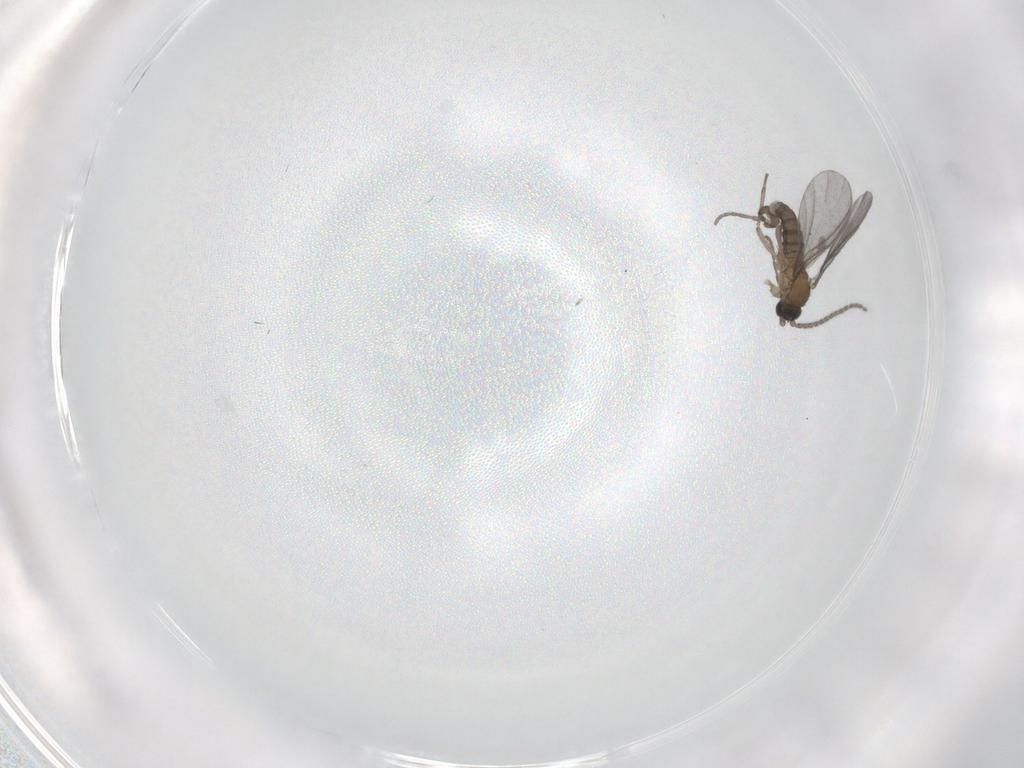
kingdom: Animalia
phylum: Arthropoda
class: Insecta
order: Diptera
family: Sciaridae
